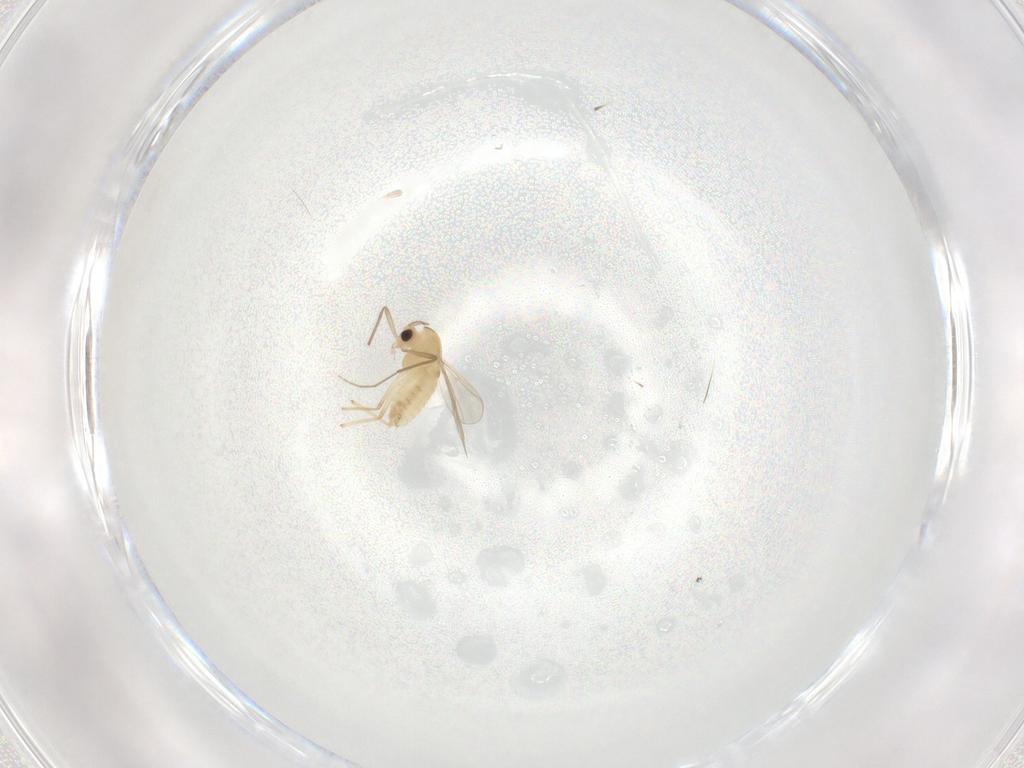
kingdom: Animalia
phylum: Arthropoda
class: Insecta
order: Diptera
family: Chironomidae
